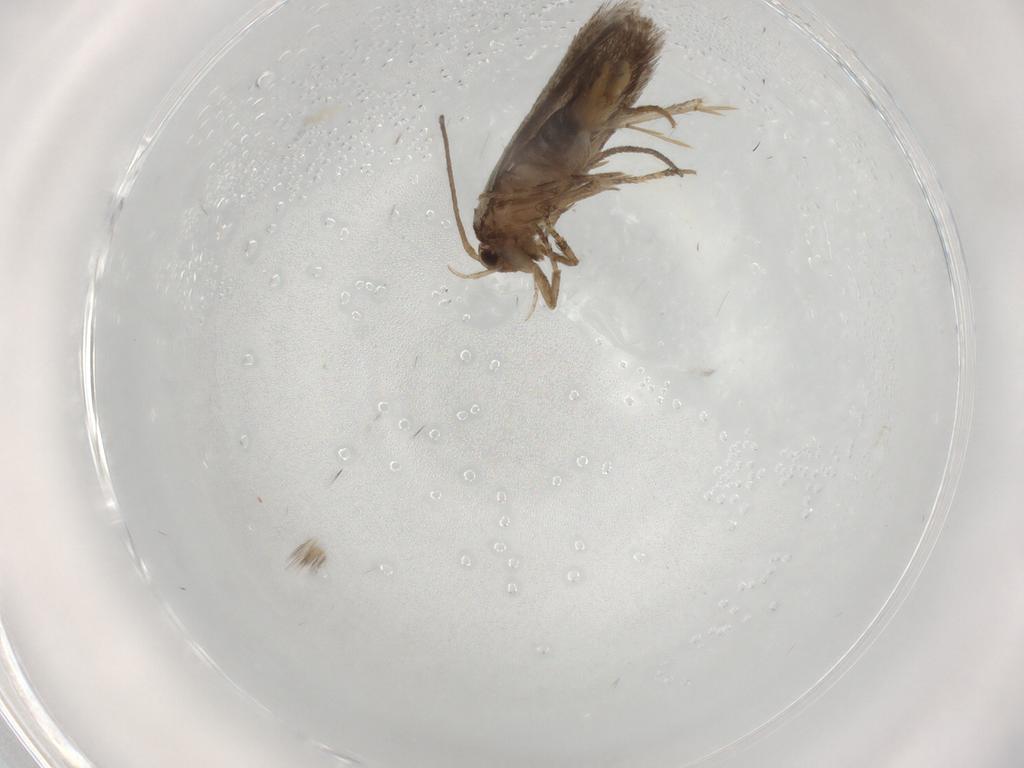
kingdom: Animalia
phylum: Arthropoda
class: Insecta
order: Lepidoptera
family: Elachistidae
